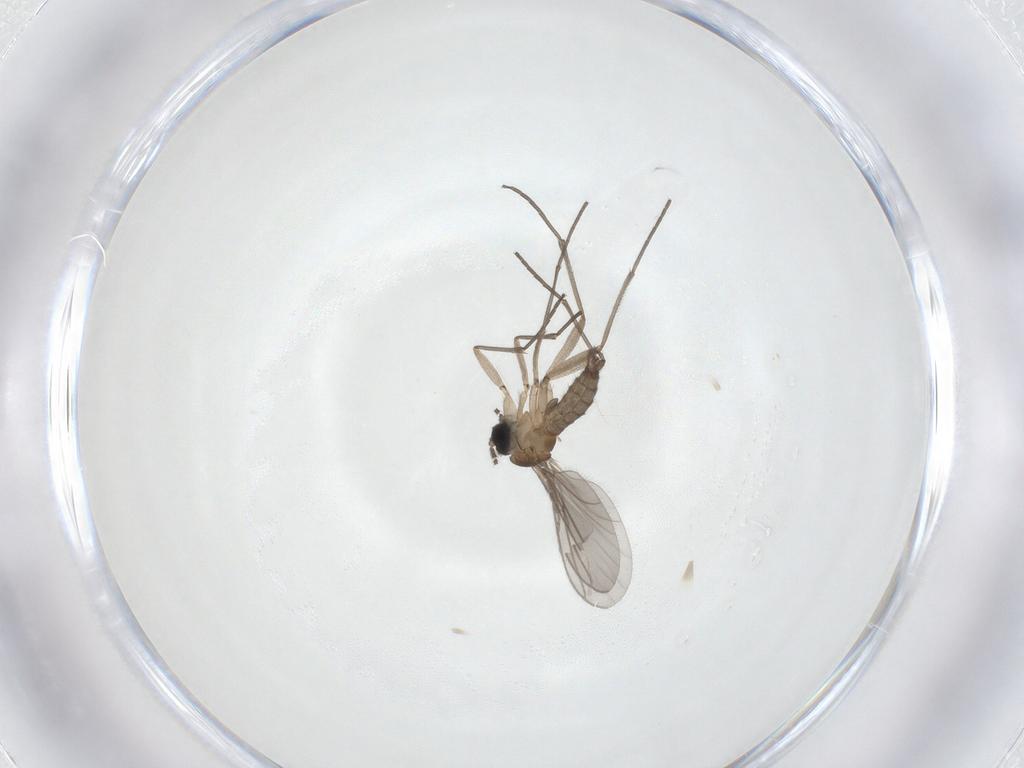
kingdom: Animalia
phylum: Arthropoda
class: Insecta
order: Diptera
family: Sciaridae
